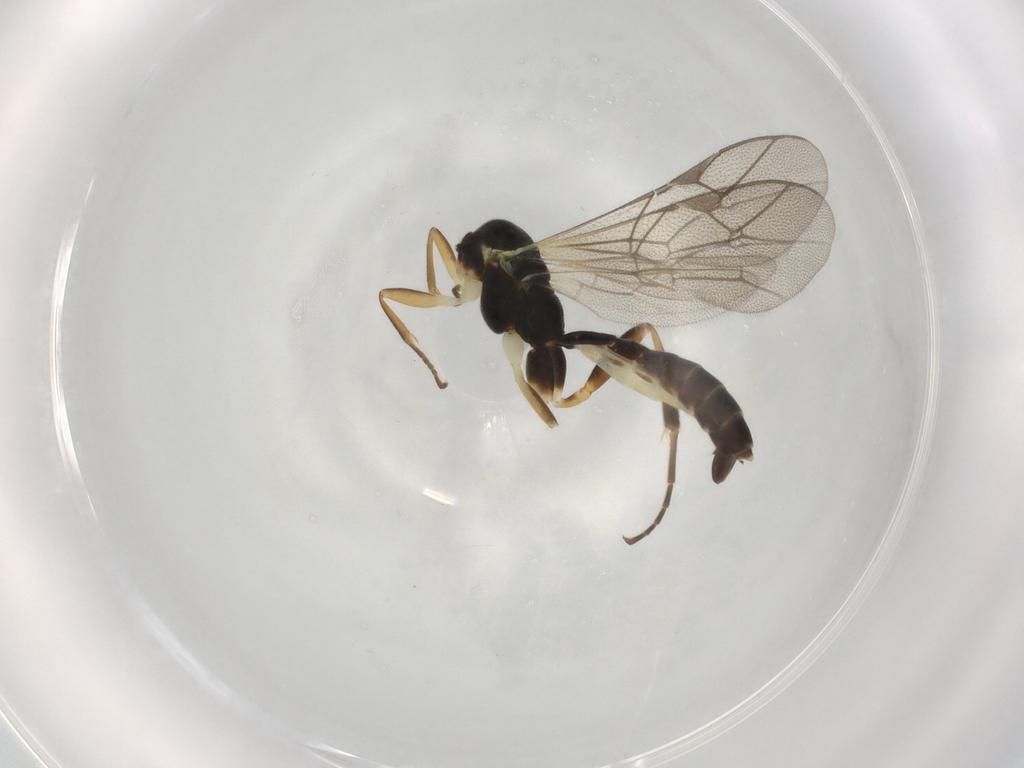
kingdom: Animalia
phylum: Arthropoda
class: Insecta
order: Hymenoptera
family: Ichneumonidae
